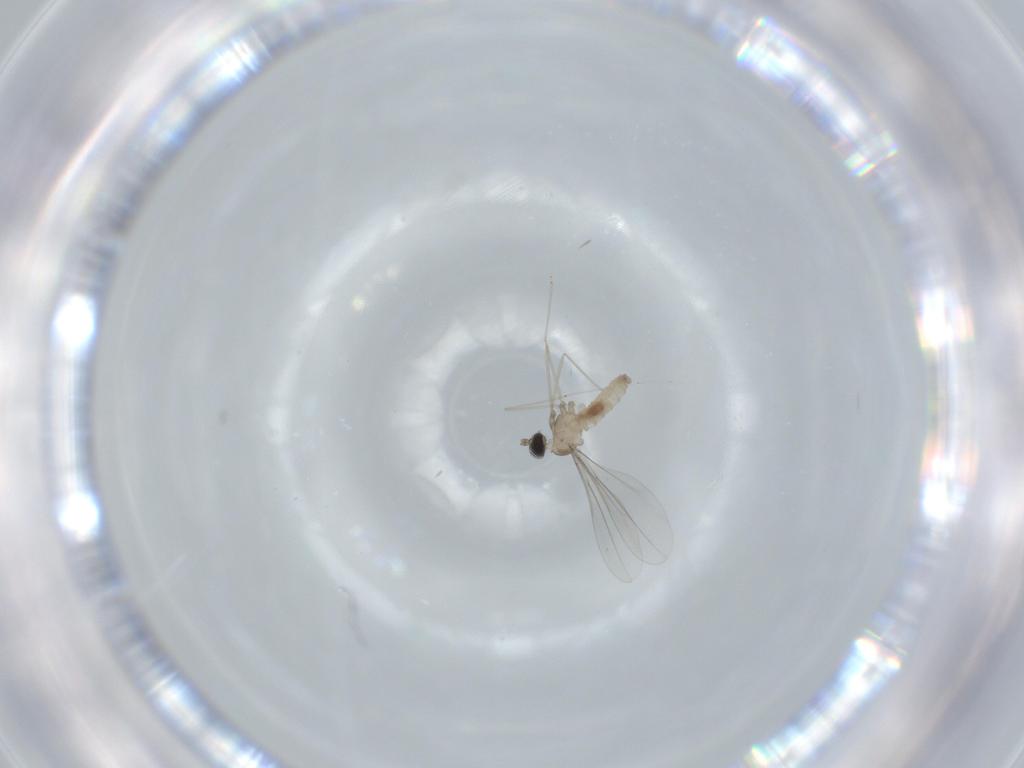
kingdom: Animalia
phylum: Arthropoda
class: Insecta
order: Diptera
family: Cecidomyiidae
